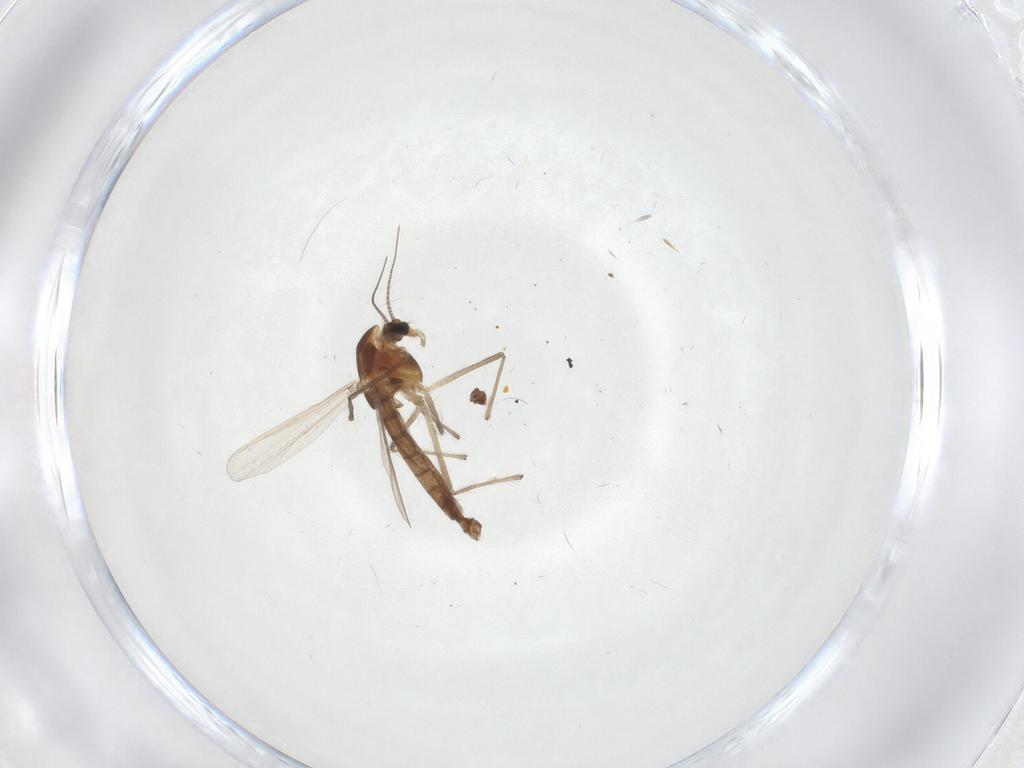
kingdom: Animalia
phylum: Arthropoda
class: Insecta
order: Diptera
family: Chironomidae
